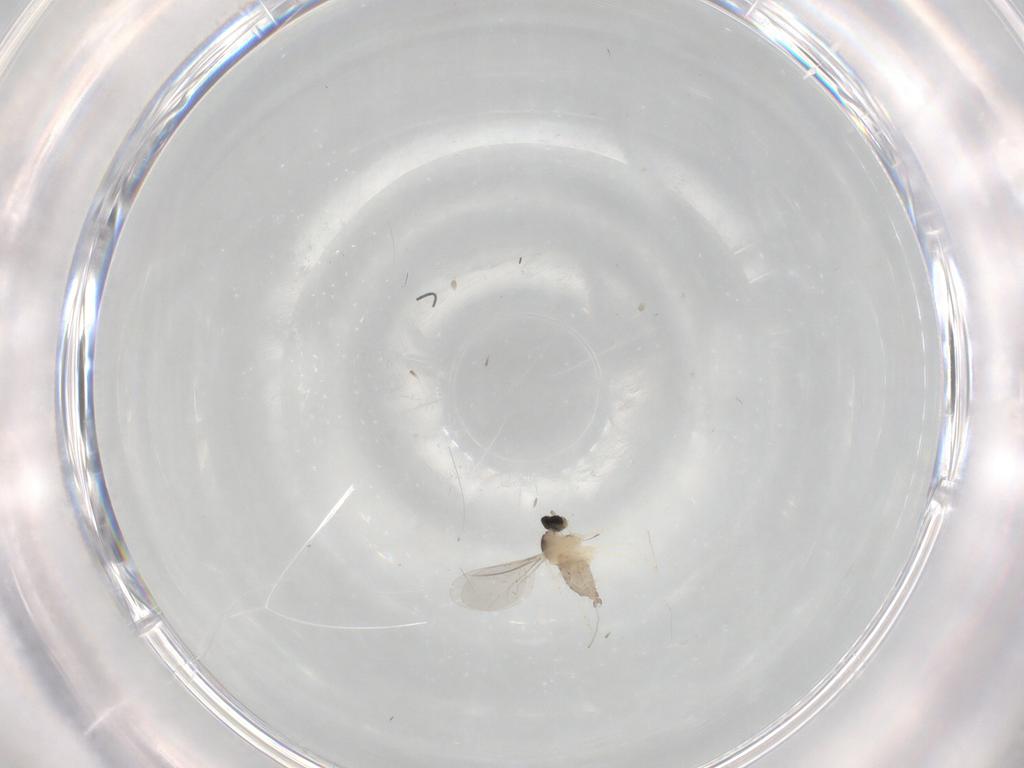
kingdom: Animalia
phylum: Arthropoda
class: Insecta
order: Diptera
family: Cecidomyiidae
